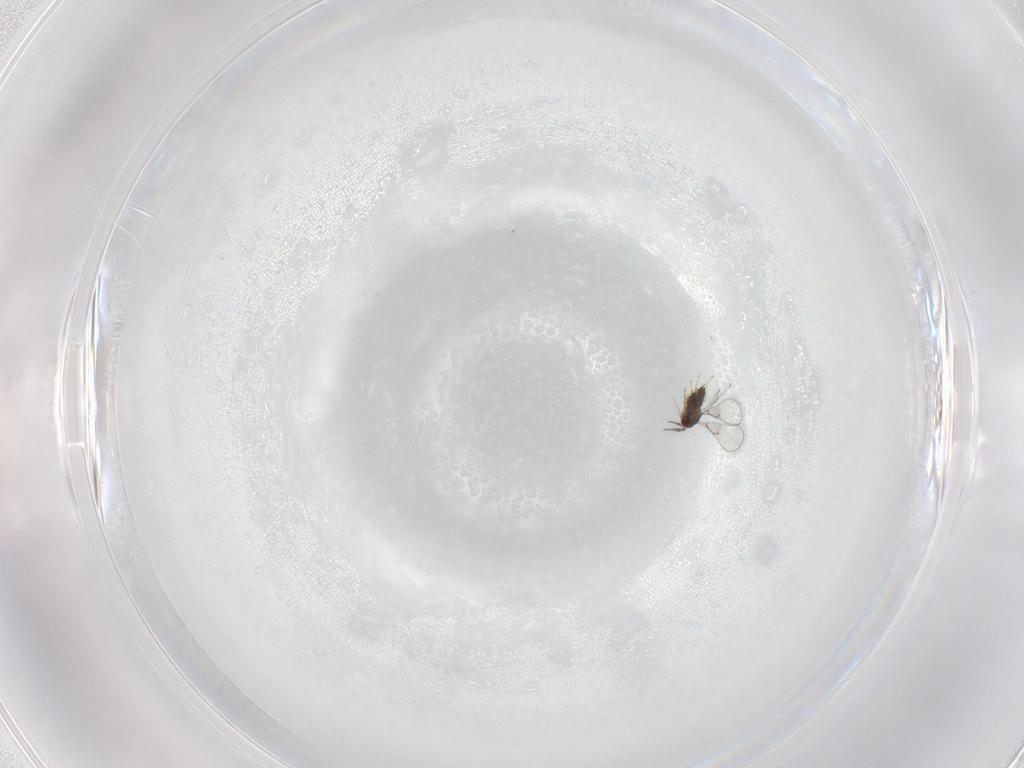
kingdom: Animalia
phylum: Arthropoda
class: Insecta
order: Hymenoptera
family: Trichogrammatidae
